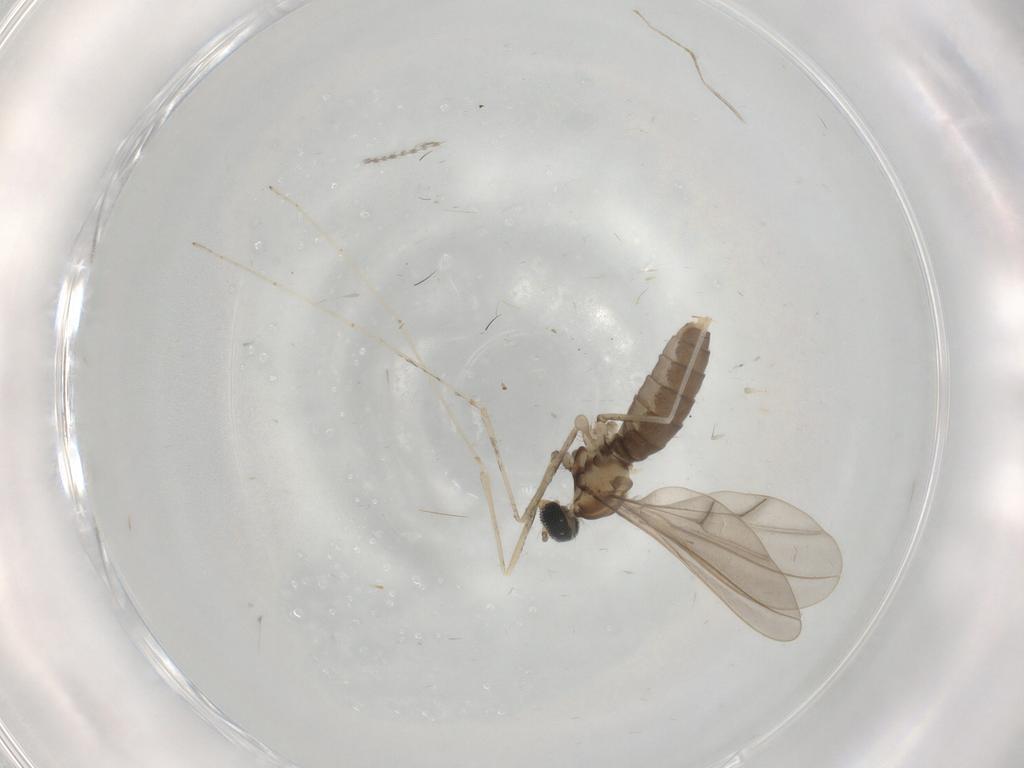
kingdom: Animalia
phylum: Arthropoda
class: Insecta
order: Diptera
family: Cecidomyiidae
